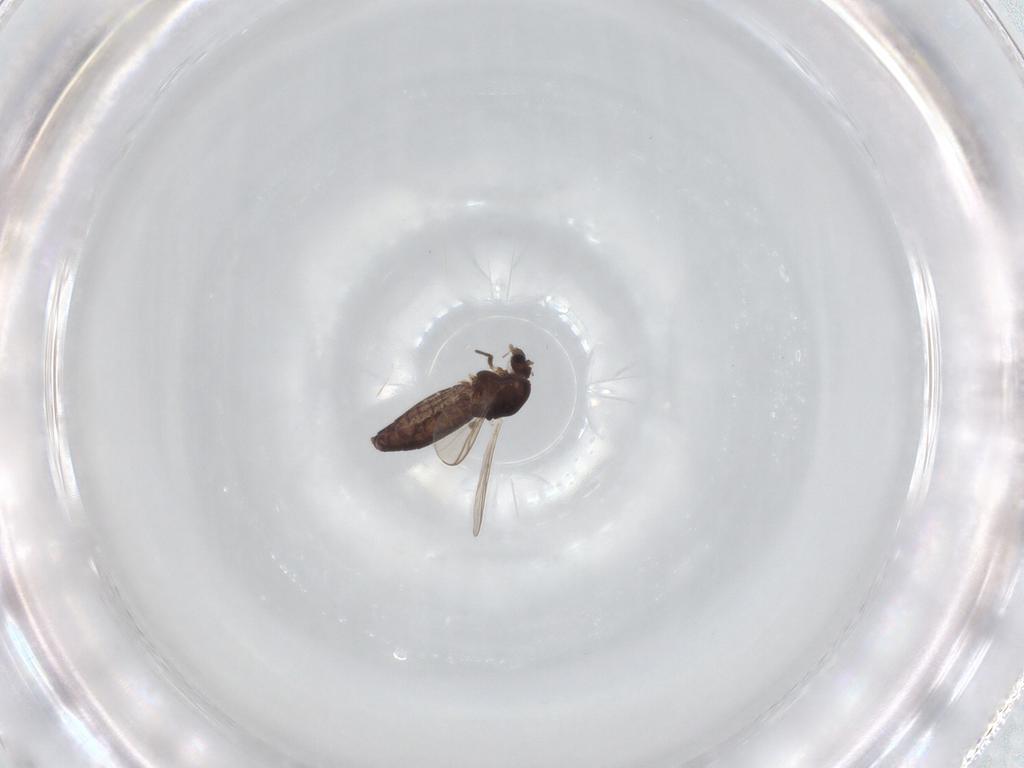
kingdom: Animalia
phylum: Arthropoda
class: Insecta
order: Diptera
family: Chironomidae
